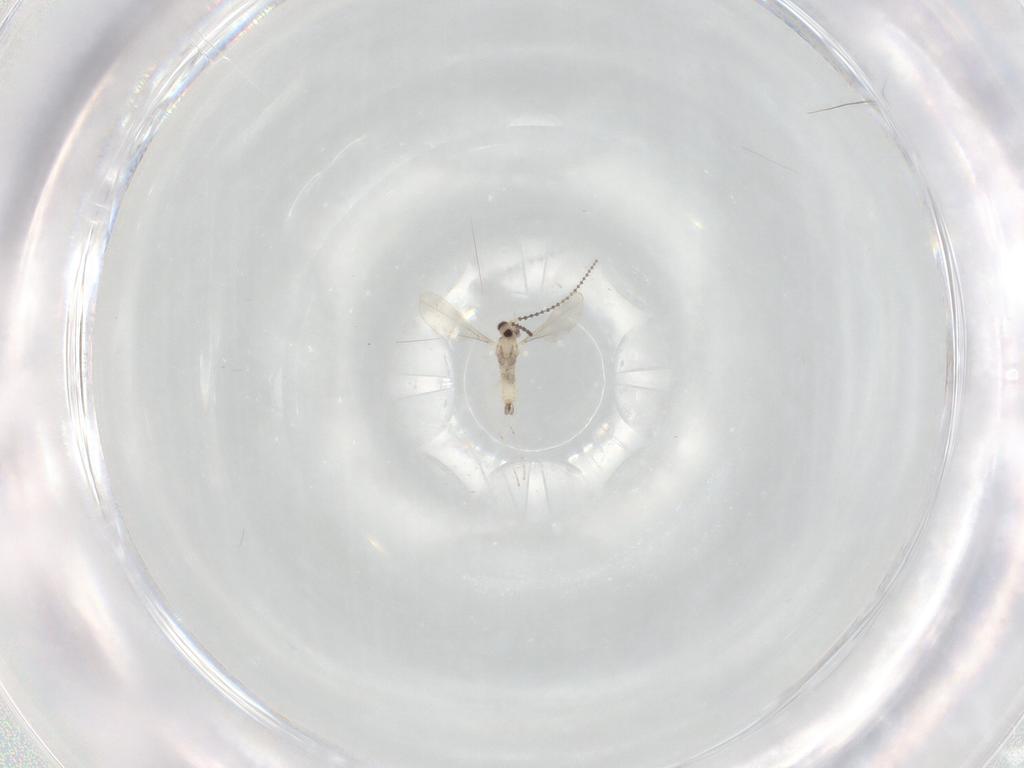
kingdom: Animalia
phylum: Arthropoda
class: Insecta
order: Diptera
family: Cecidomyiidae
